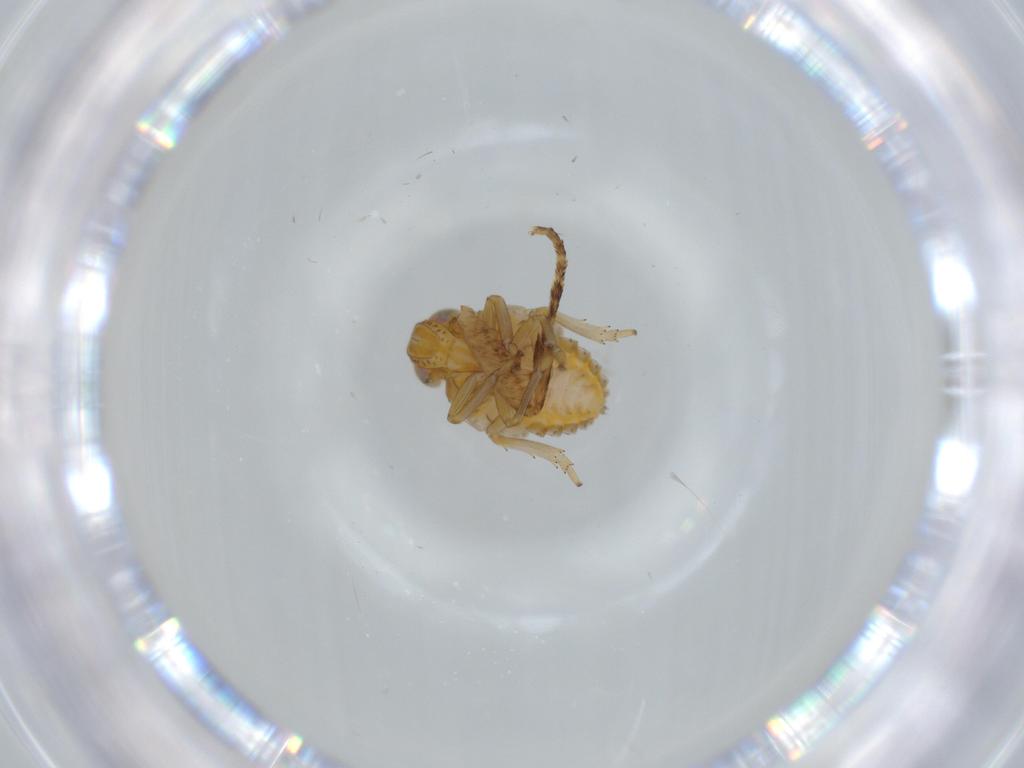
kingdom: Animalia
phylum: Arthropoda
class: Insecta
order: Hemiptera
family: Issidae
